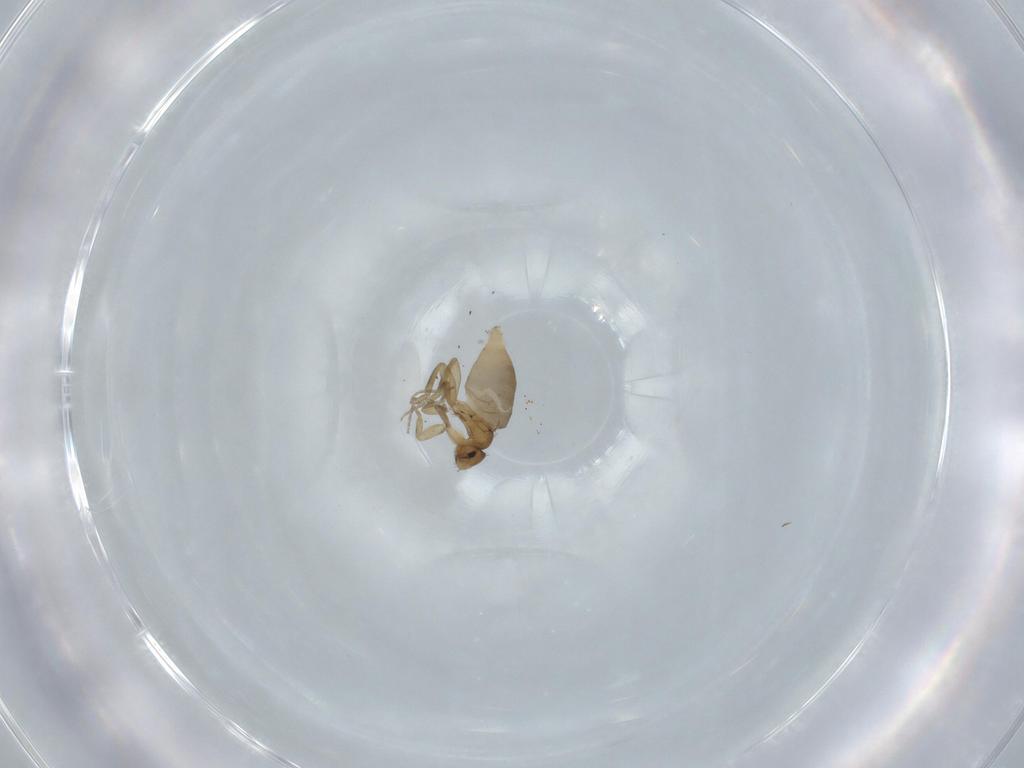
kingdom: Animalia
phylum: Arthropoda
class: Insecta
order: Diptera
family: Phoridae
